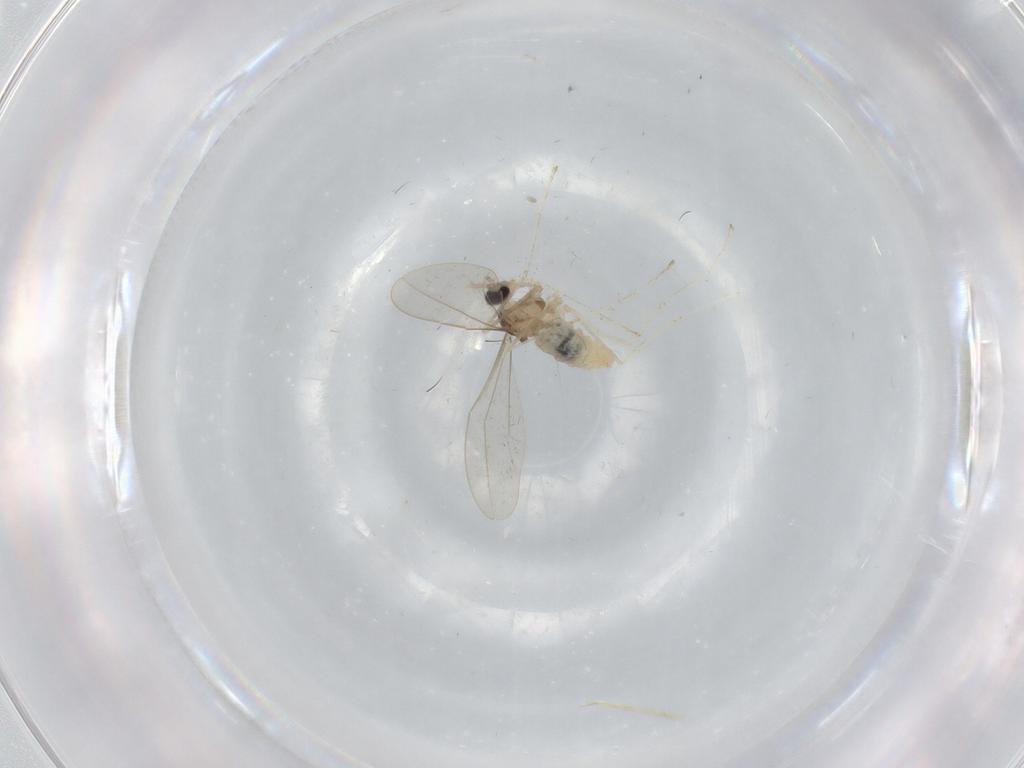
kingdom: Animalia
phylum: Arthropoda
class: Insecta
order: Diptera
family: Cecidomyiidae
